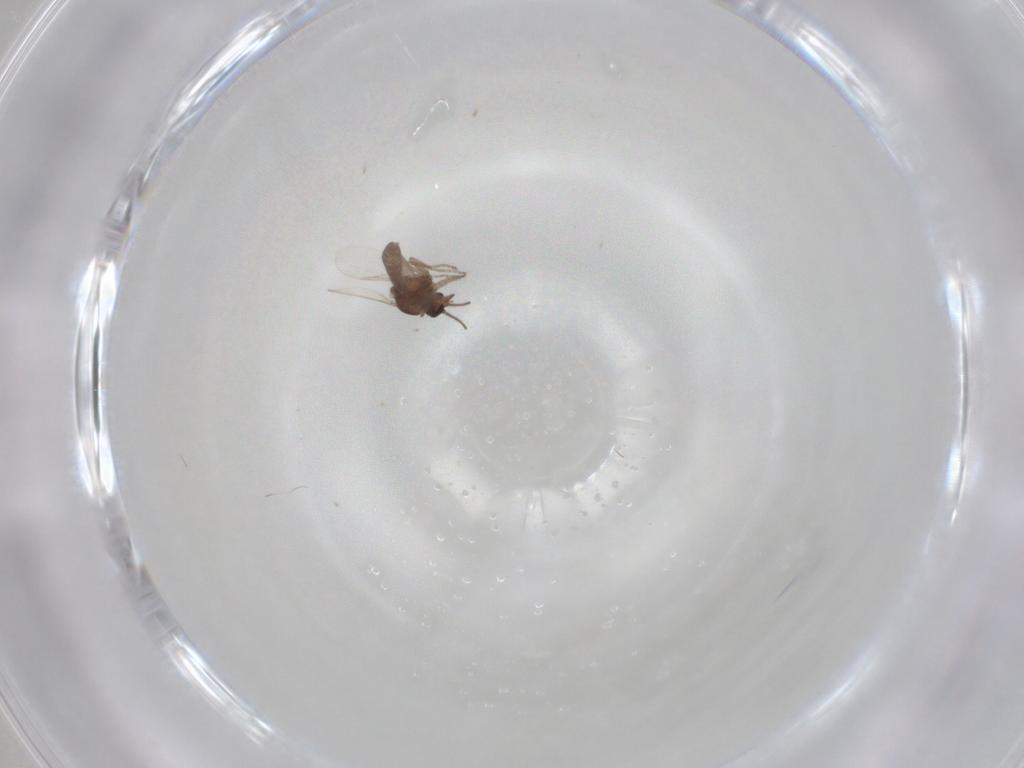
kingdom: Animalia
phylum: Arthropoda
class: Insecta
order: Diptera
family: Ceratopogonidae
